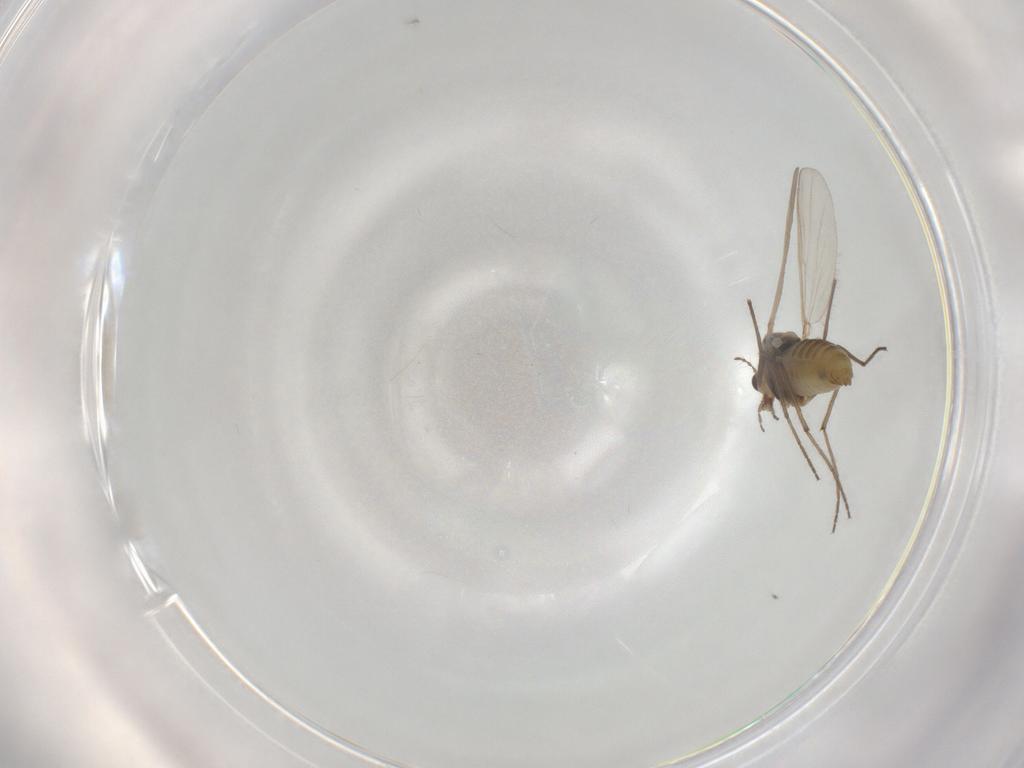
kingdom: Animalia
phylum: Arthropoda
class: Insecta
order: Diptera
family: Chironomidae
